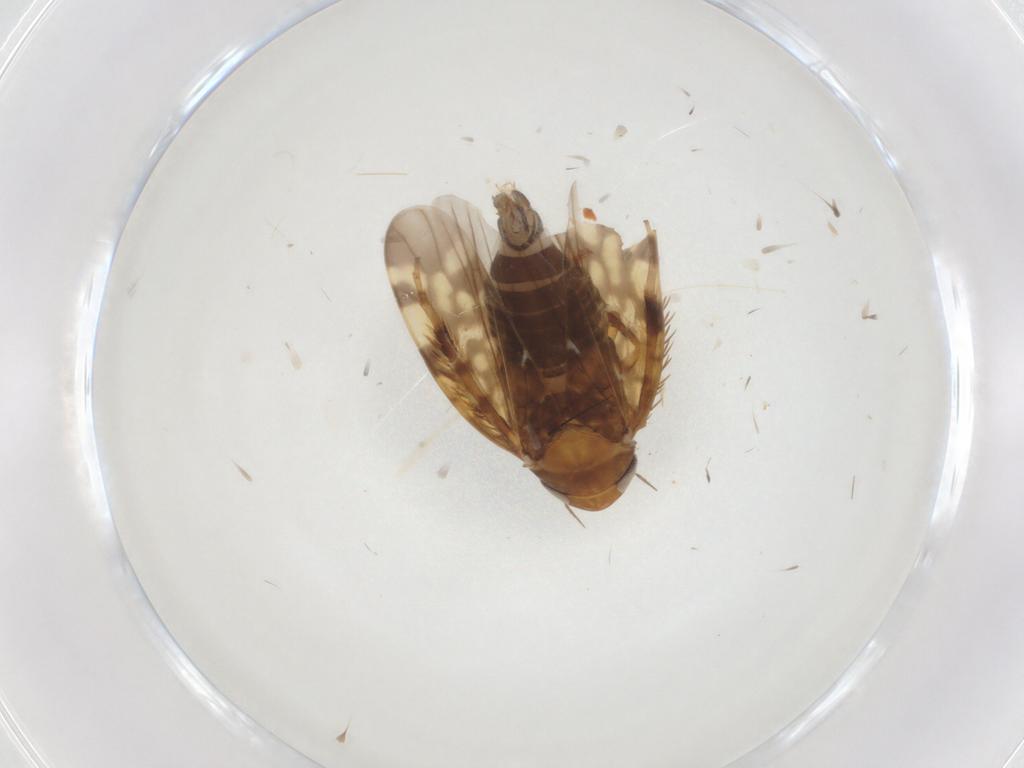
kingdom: Animalia
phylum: Arthropoda
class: Insecta
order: Hemiptera
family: Cicadellidae
